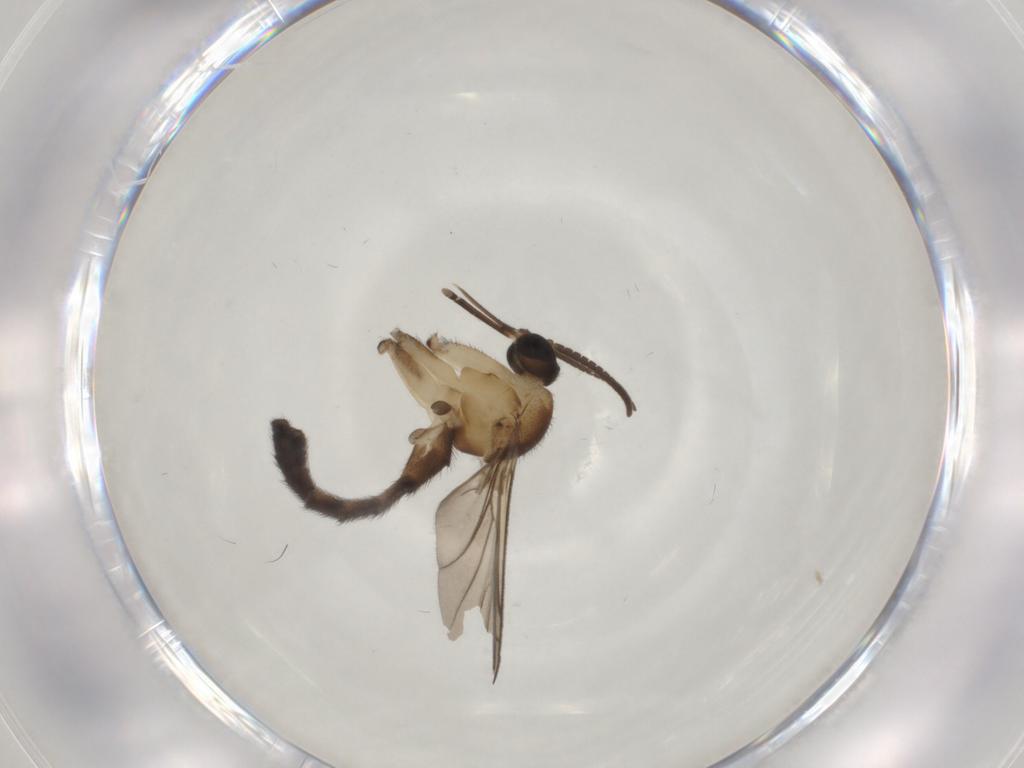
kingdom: Animalia
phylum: Arthropoda
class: Insecta
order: Diptera
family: Keroplatidae
